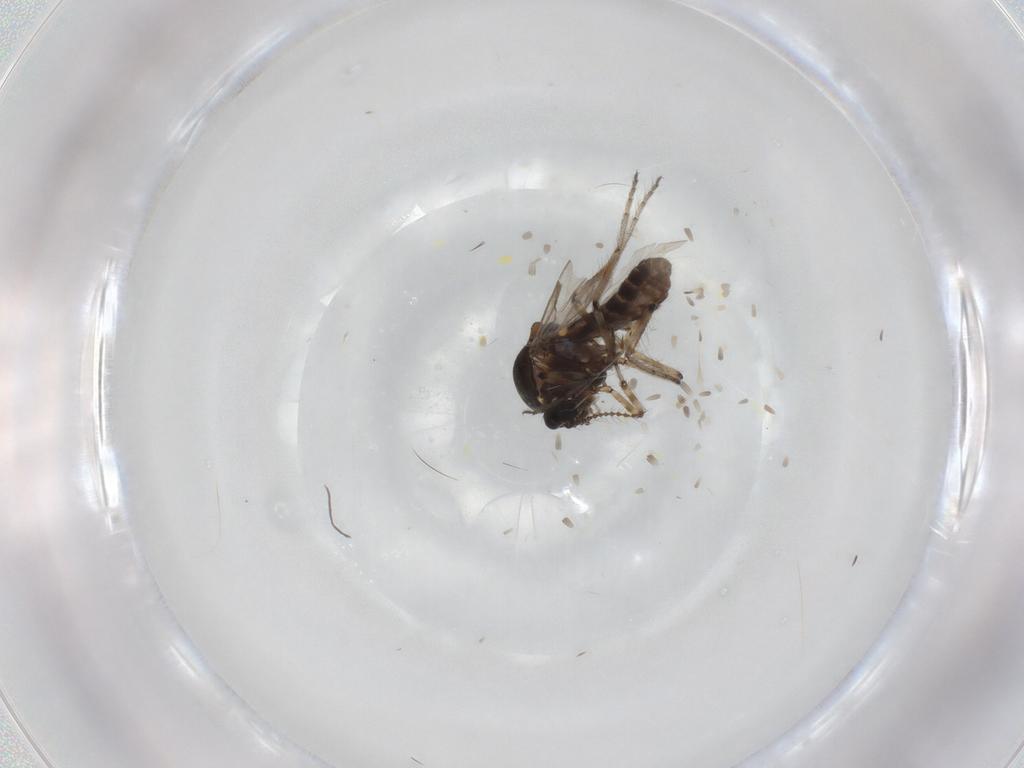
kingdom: Animalia
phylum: Arthropoda
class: Insecta
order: Diptera
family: Ceratopogonidae
